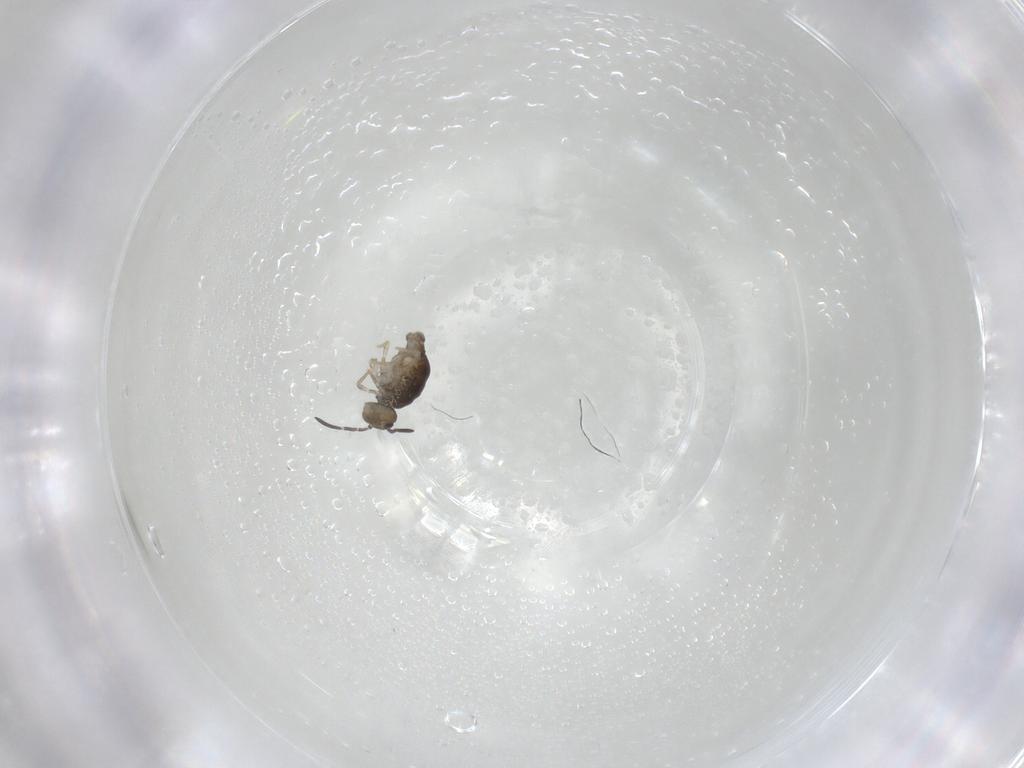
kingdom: Animalia
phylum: Arthropoda
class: Collembola
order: Symphypleona
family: Katiannidae
